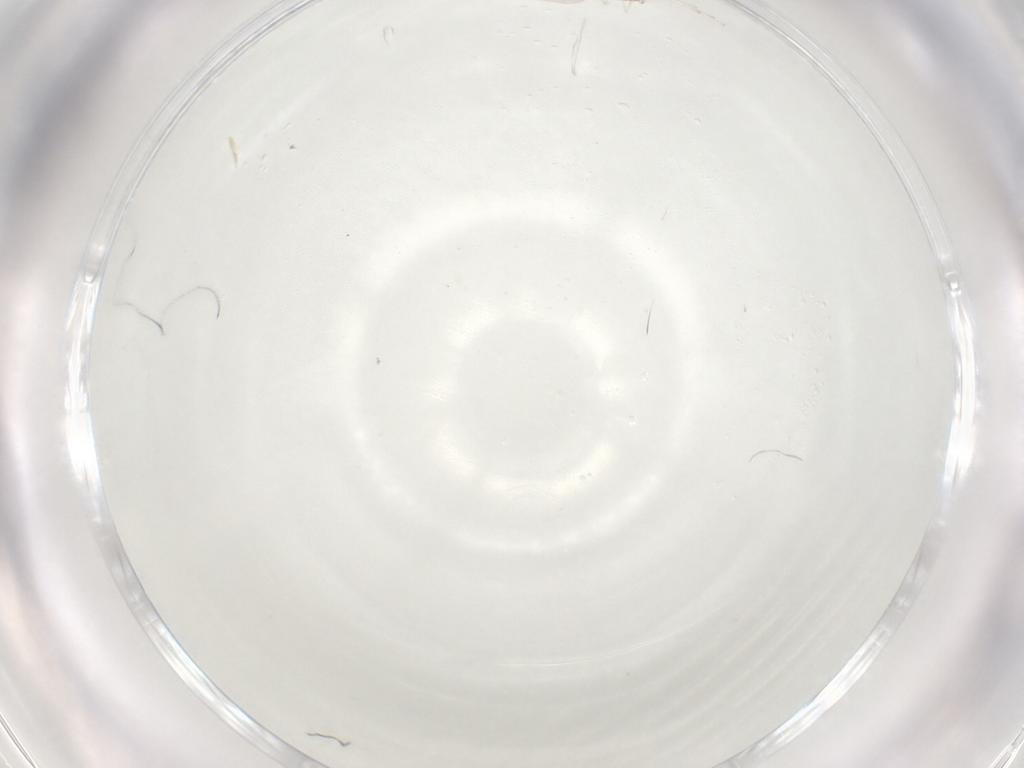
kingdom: Animalia
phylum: Arthropoda
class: Insecta
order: Diptera
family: Cecidomyiidae
